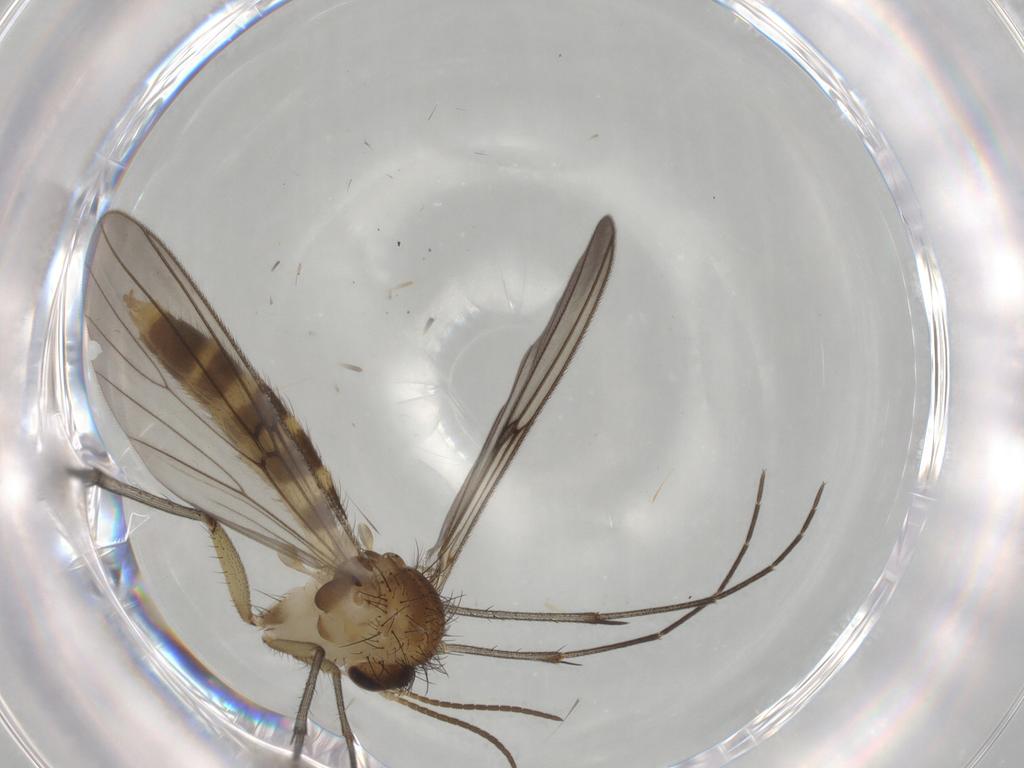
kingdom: Animalia
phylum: Arthropoda
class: Insecta
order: Diptera
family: Mycetophilidae
